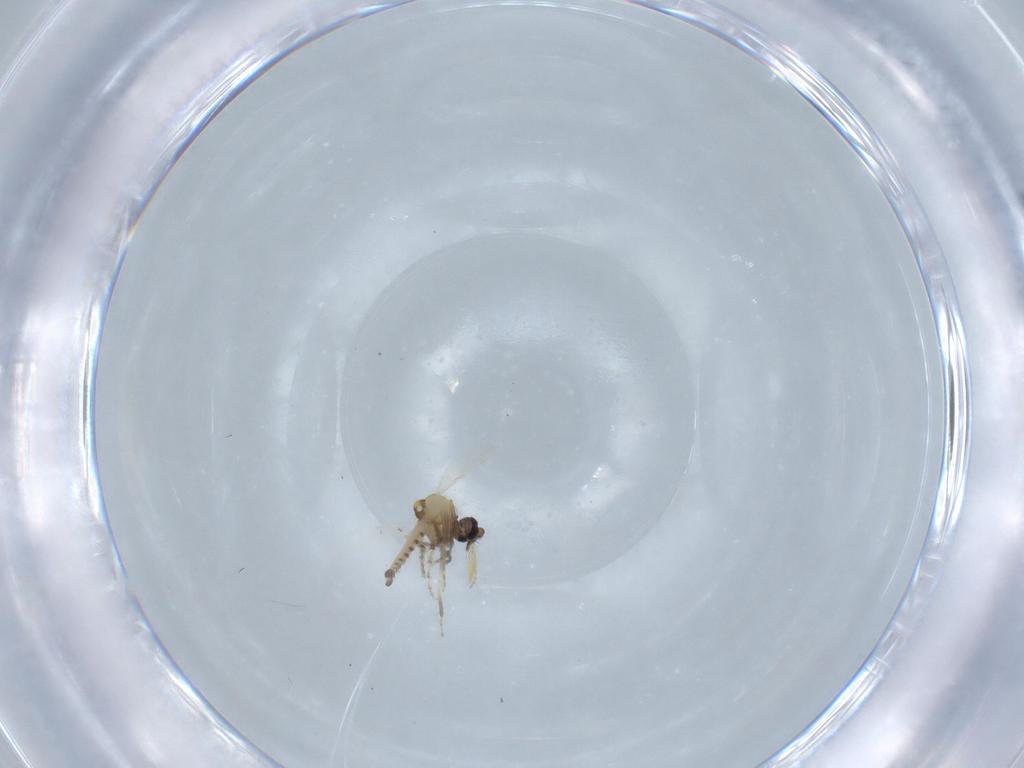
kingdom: Animalia
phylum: Arthropoda
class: Insecta
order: Diptera
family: Ceratopogonidae
